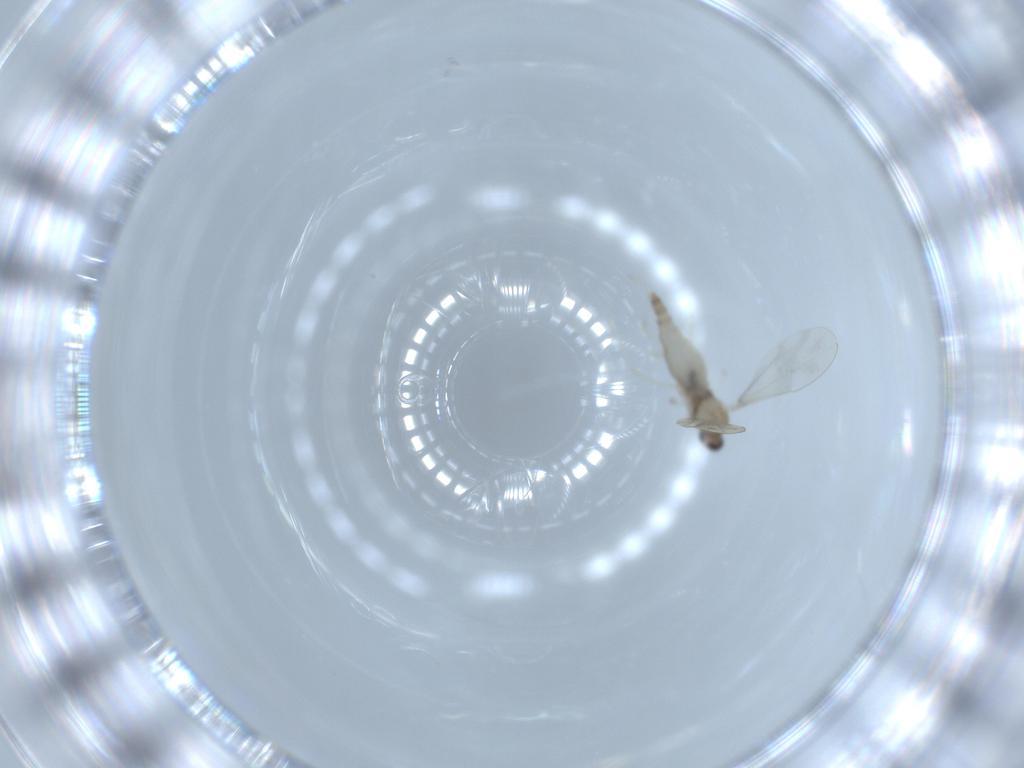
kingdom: Animalia
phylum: Arthropoda
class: Insecta
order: Diptera
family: Cecidomyiidae
